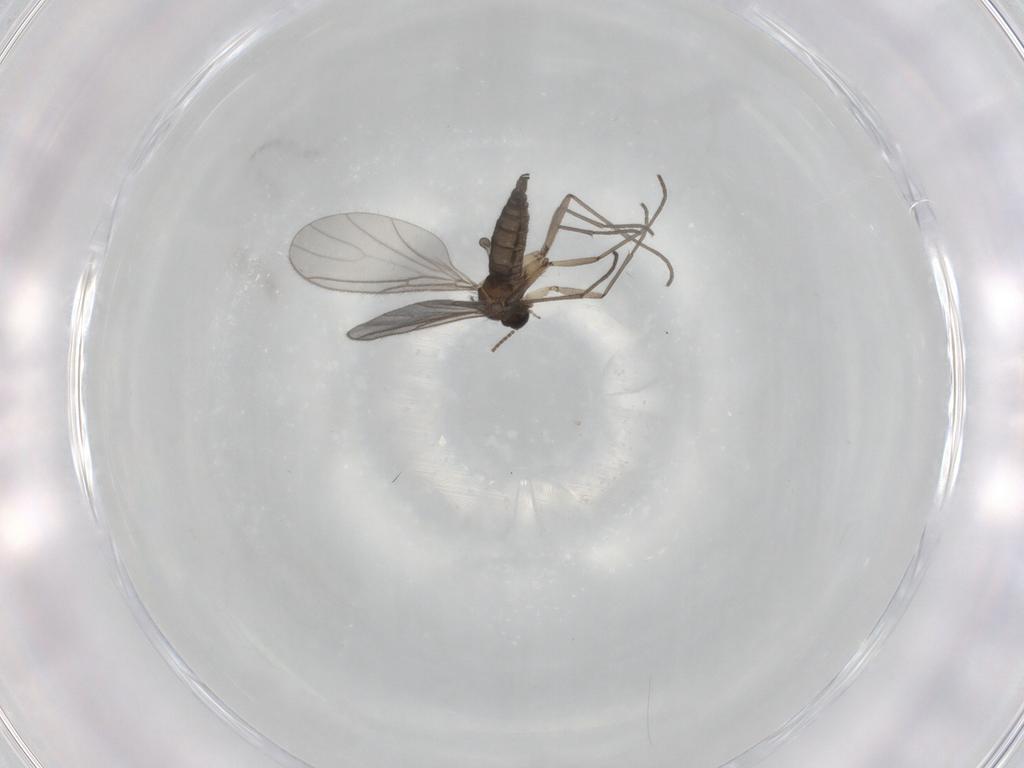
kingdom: Animalia
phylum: Arthropoda
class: Insecta
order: Diptera
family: Sciaridae
